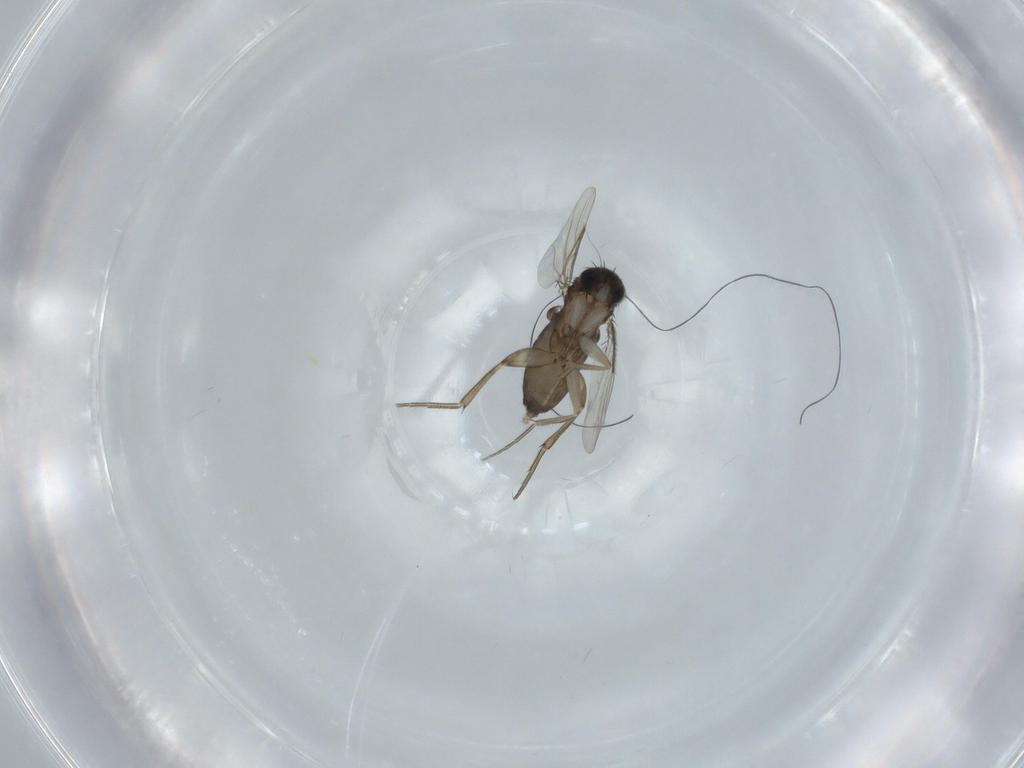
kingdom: Animalia
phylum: Arthropoda
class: Insecta
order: Diptera
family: Phoridae
